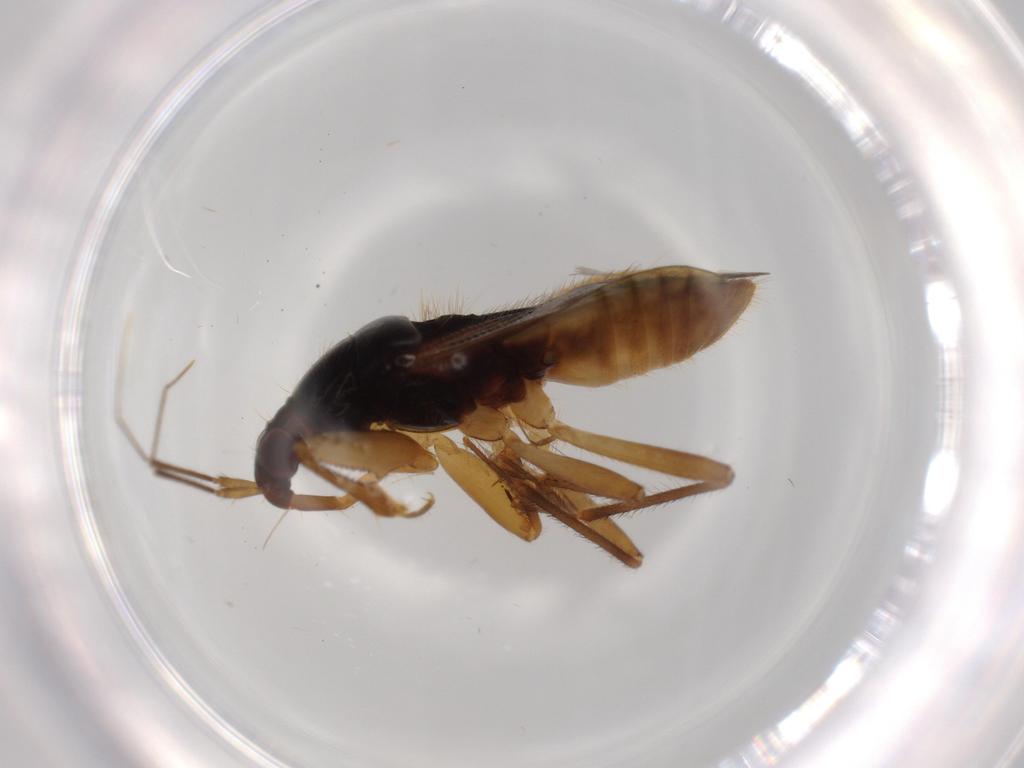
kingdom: Animalia
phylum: Arthropoda
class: Insecta
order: Hemiptera
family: Nabidae
